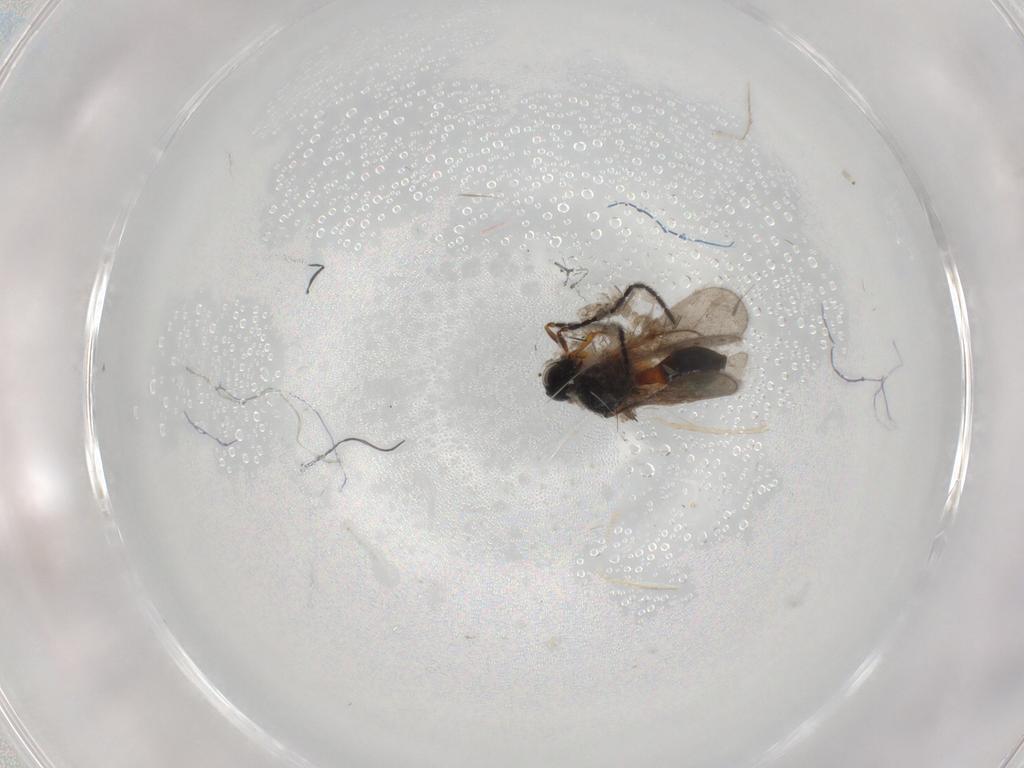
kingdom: Animalia
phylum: Arthropoda
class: Insecta
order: Hymenoptera
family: Scelionidae
